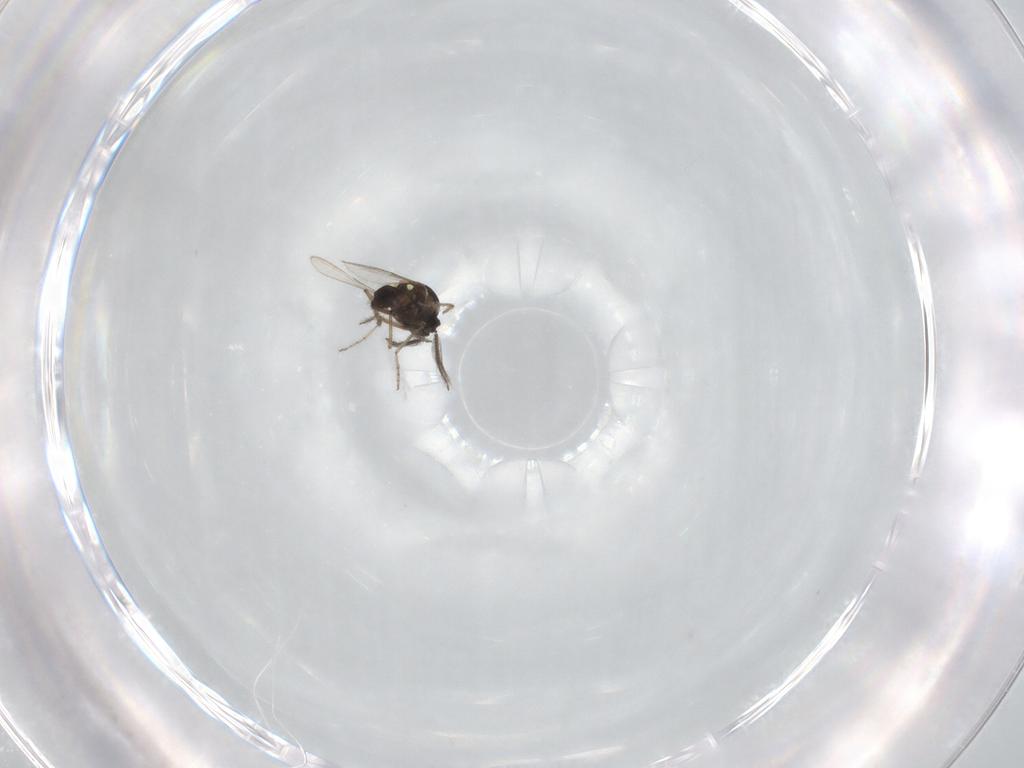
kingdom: Animalia
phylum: Arthropoda
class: Insecta
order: Diptera
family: Ceratopogonidae
